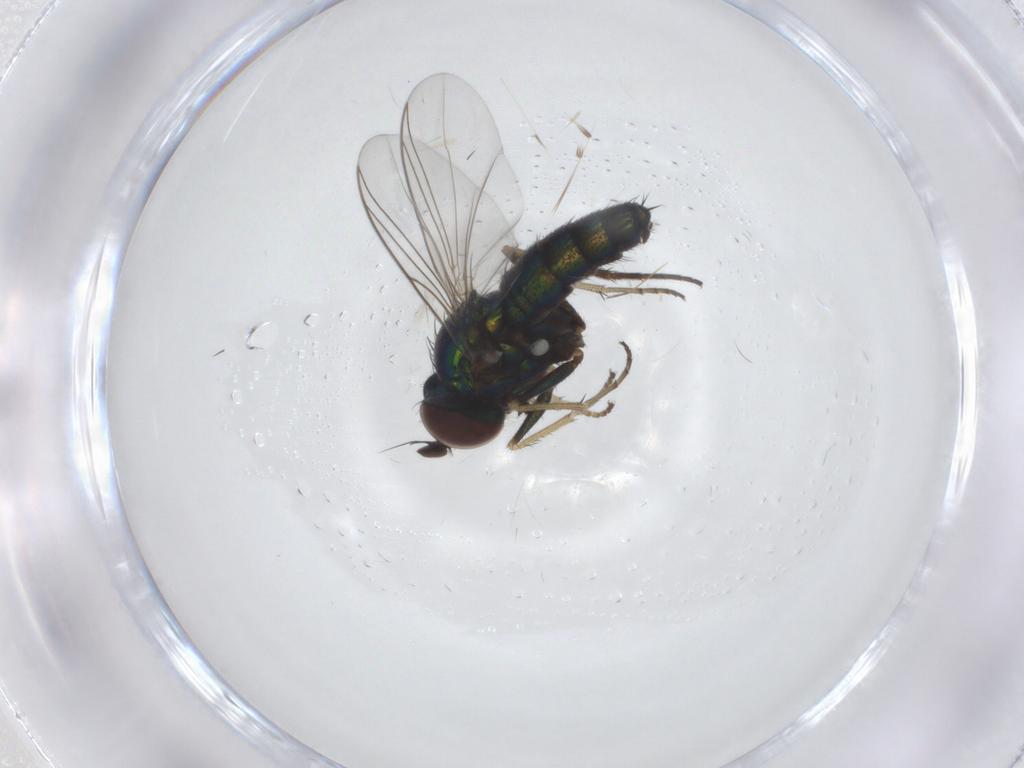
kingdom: Animalia
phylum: Arthropoda
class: Insecta
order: Diptera
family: Dolichopodidae
